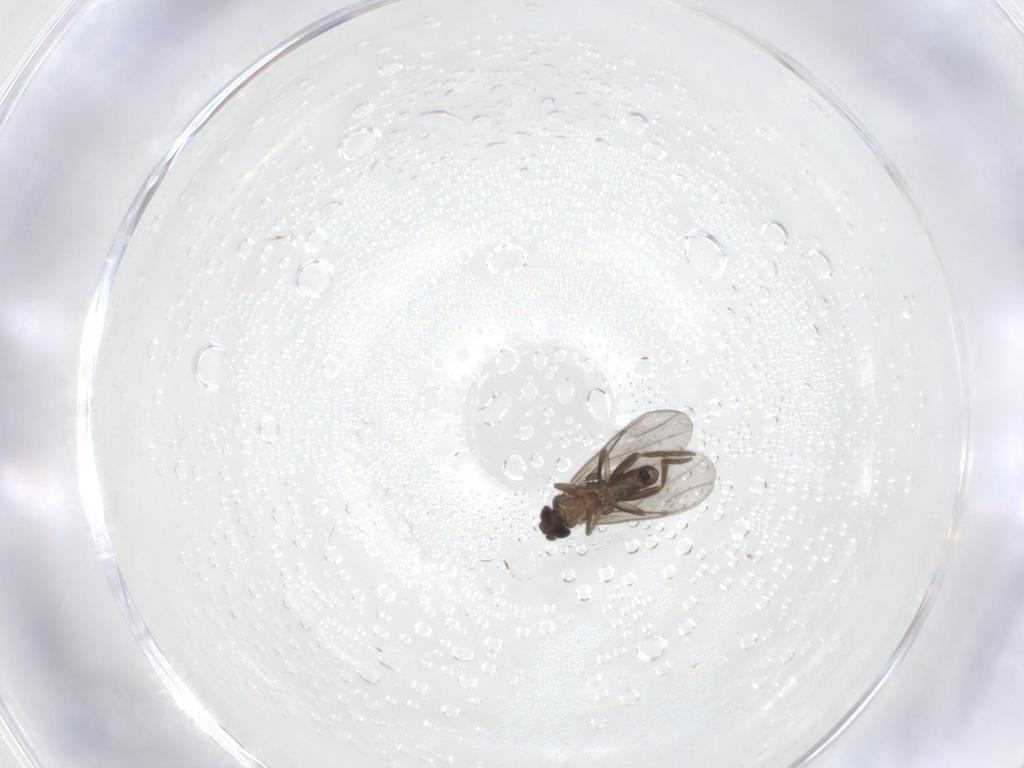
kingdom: Animalia
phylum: Arthropoda
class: Insecta
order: Diptera
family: Phoridae
